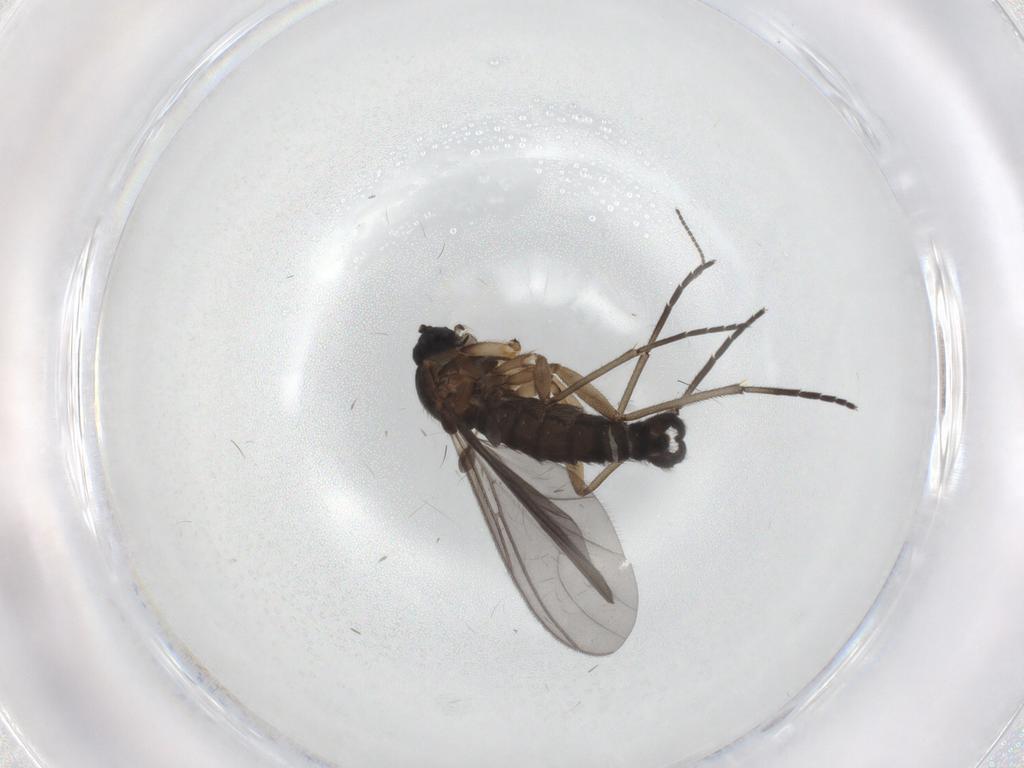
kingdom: Animalia
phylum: Arthropoda
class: Insecta
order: Diptera
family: Sciaridae
